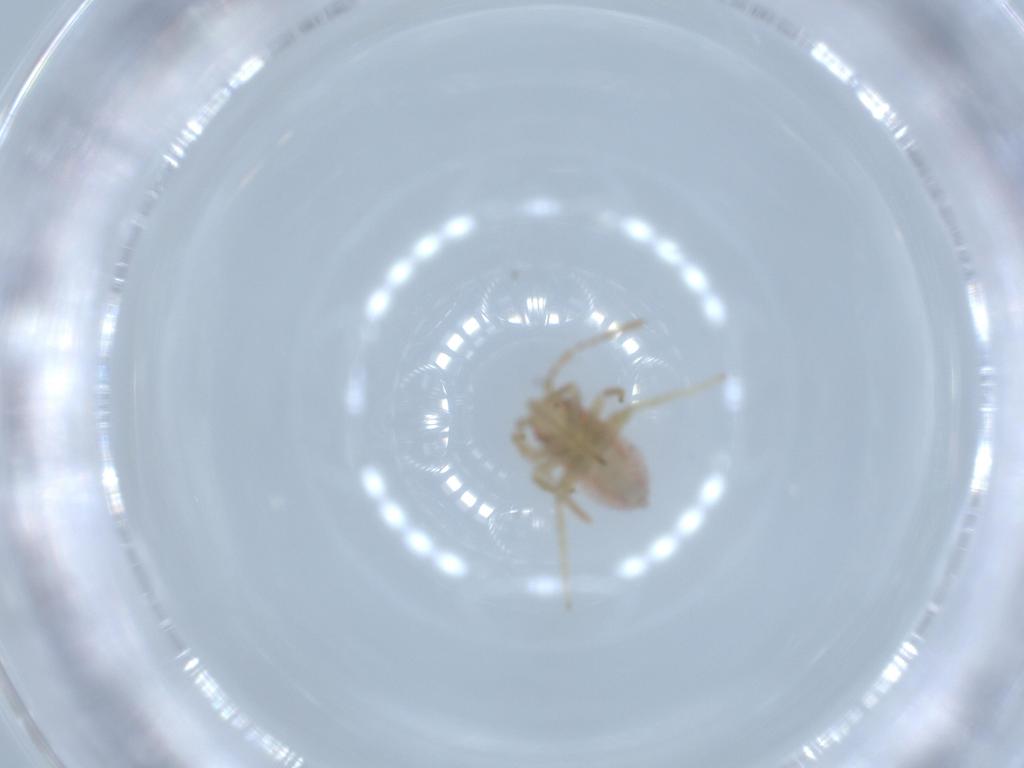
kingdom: Animalia
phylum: Arthropoda
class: Insecta
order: Hemiptera
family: Miridae
